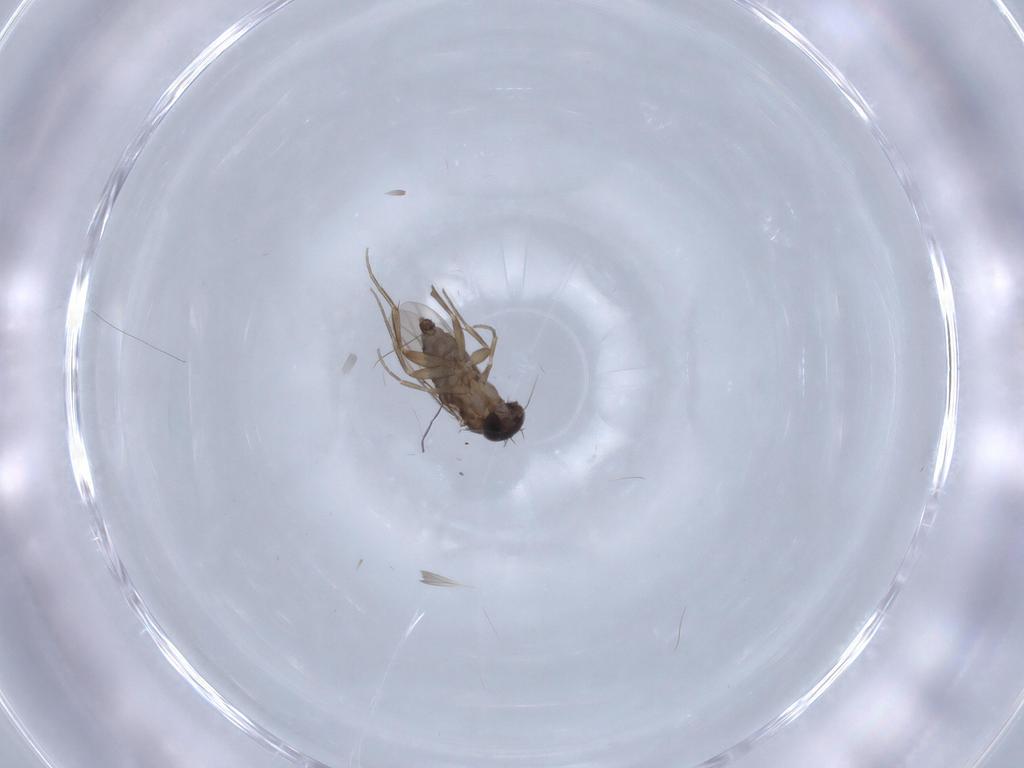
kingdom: Animalia
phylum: Arthropoda
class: Insecta
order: Diptera
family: Phoridae
